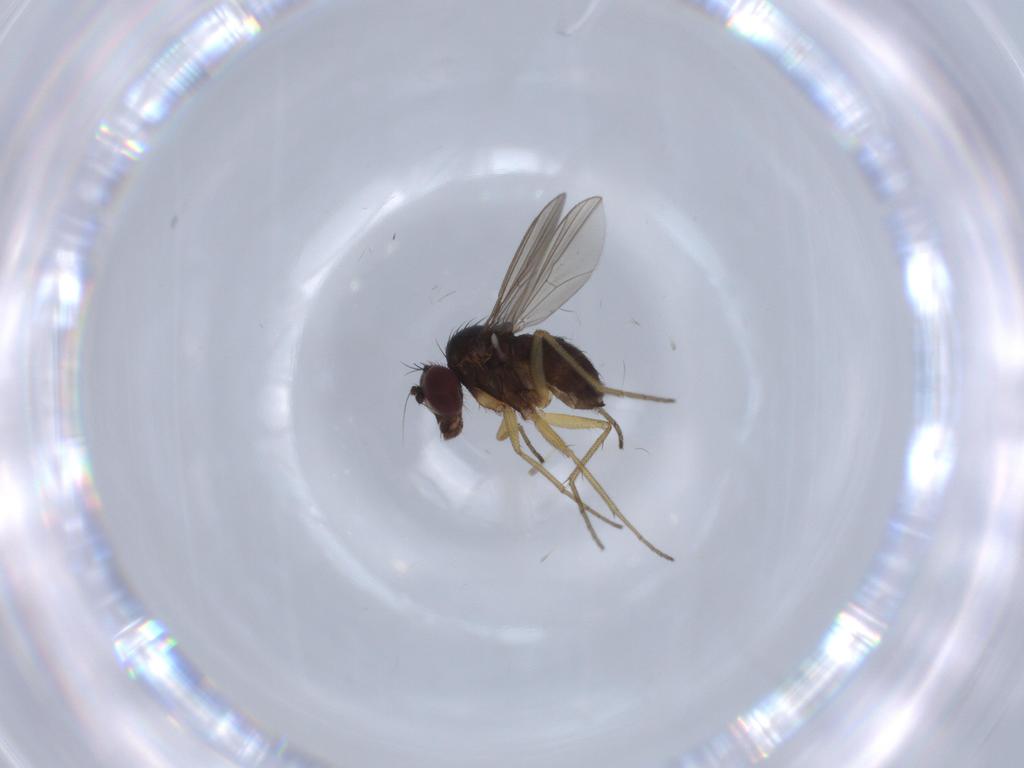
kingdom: Animalia
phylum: Arthropoda
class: Insecta
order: Diptera
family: Dolichopodidae
